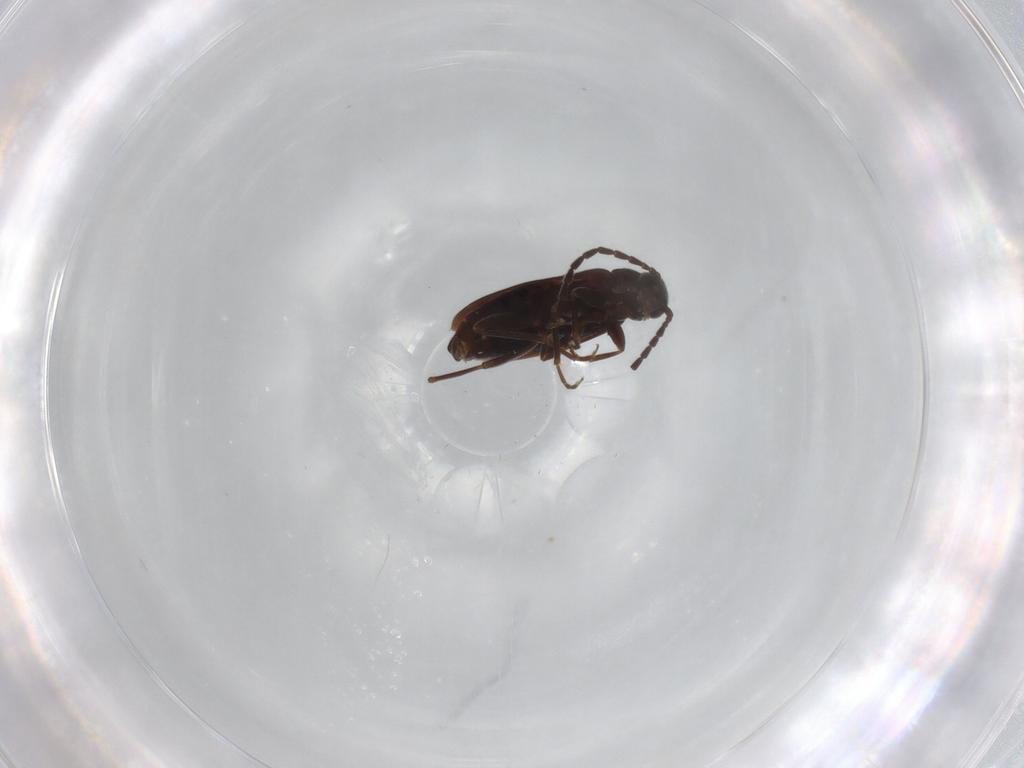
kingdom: Animalia
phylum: Arthropoda
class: Insecta
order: Coleoptera
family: Scraptiidae
